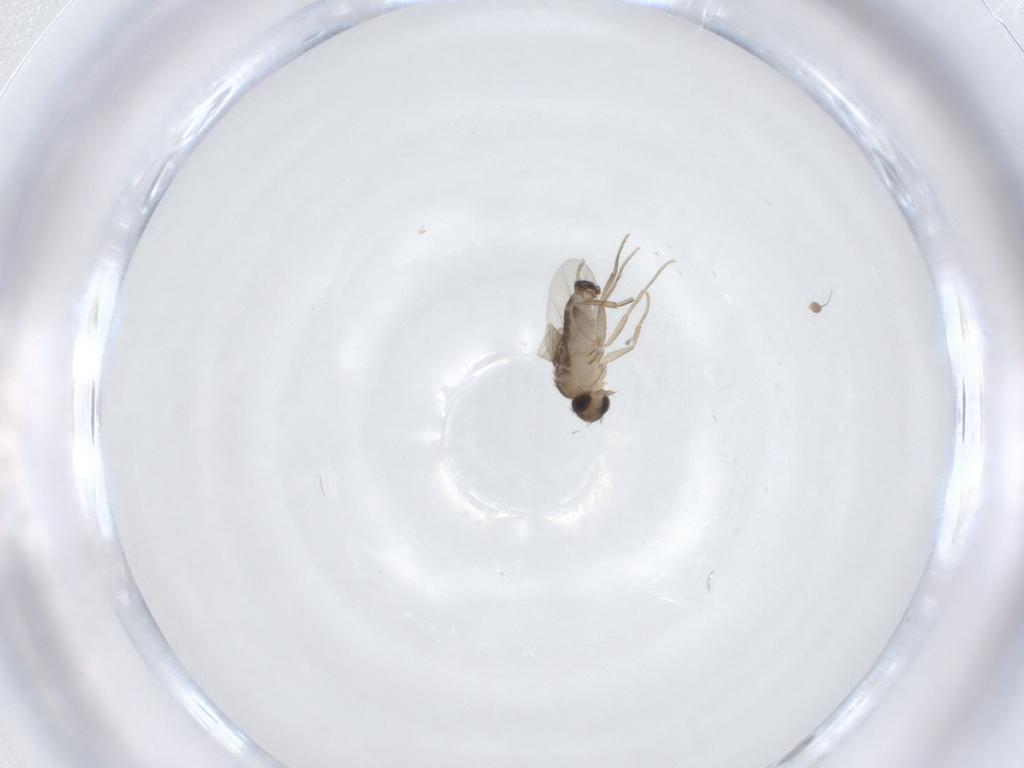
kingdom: Animalia
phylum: Arthropoda
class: Insecta
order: Diptera
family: Phoridae
